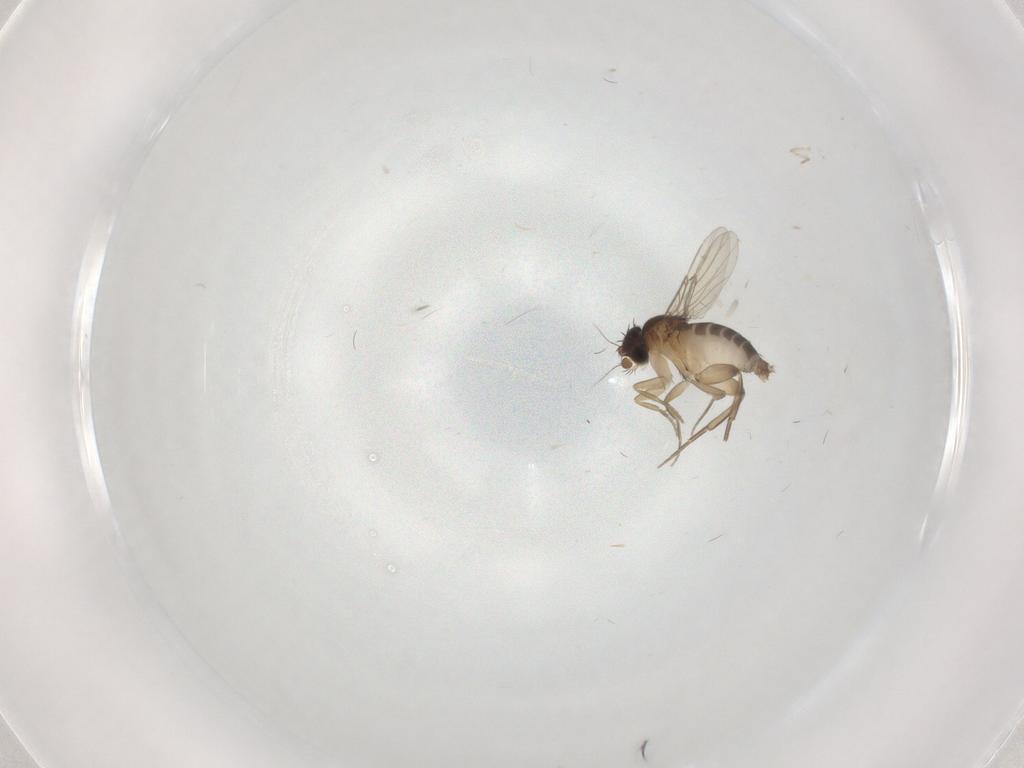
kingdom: Animalia
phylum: Arthropoda
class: Insecta
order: Diptera
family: Phoridae
